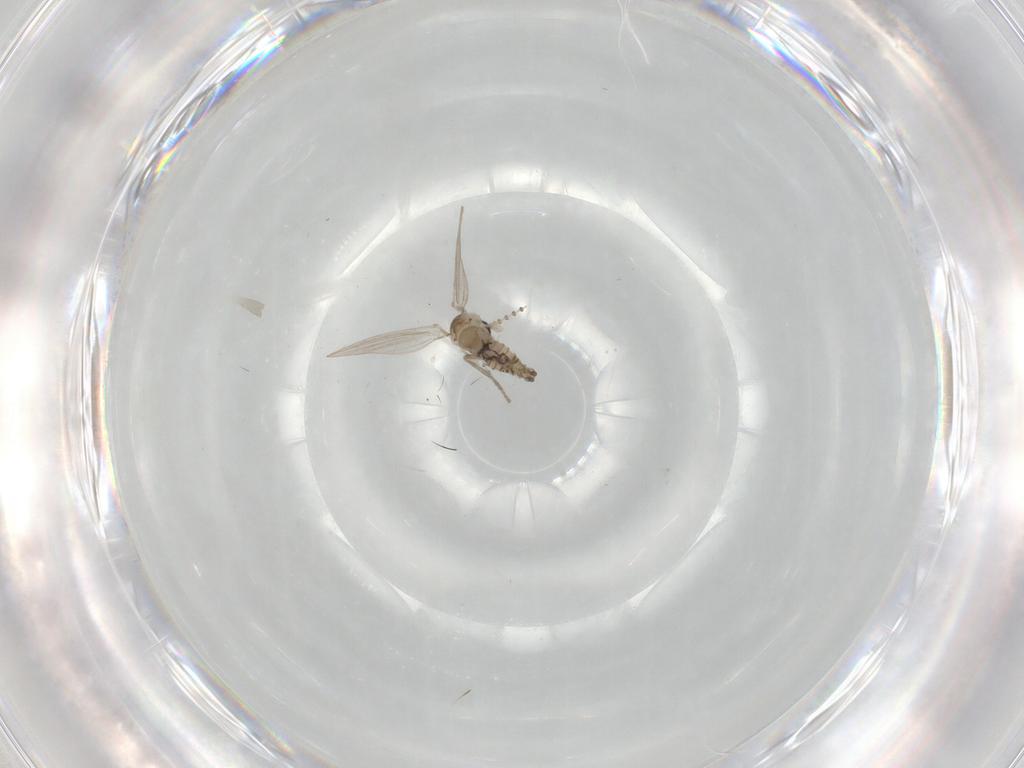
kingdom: Animalia
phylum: Arthropoda
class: Insecta
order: Diptera
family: Psychodidae
